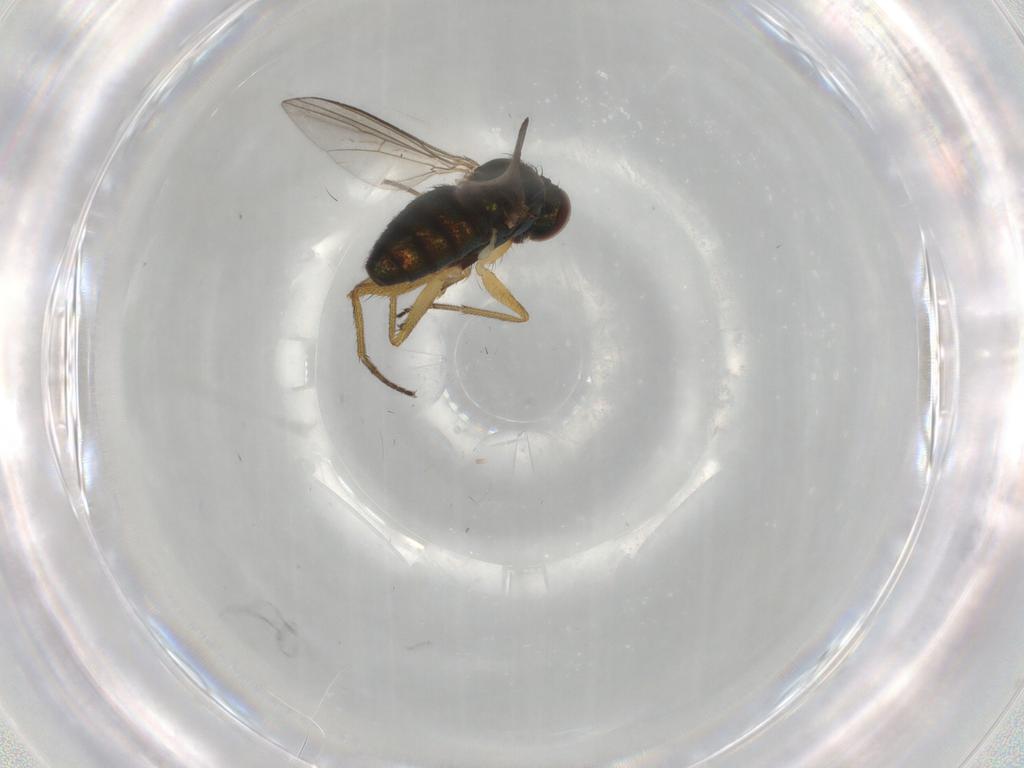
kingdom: Animalia
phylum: Arthropoda
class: Insecta
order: Diptera
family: Dolichopodidae
